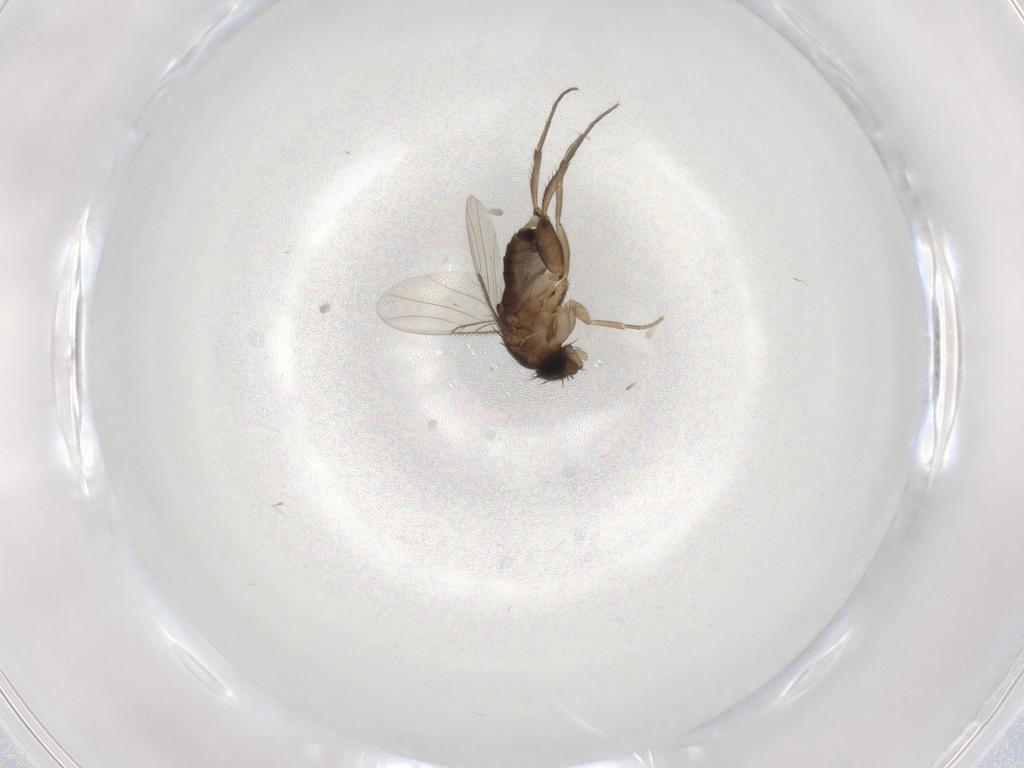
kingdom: Animalia
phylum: Arthropoda
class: Insecta
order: Diptera
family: Phoridae
